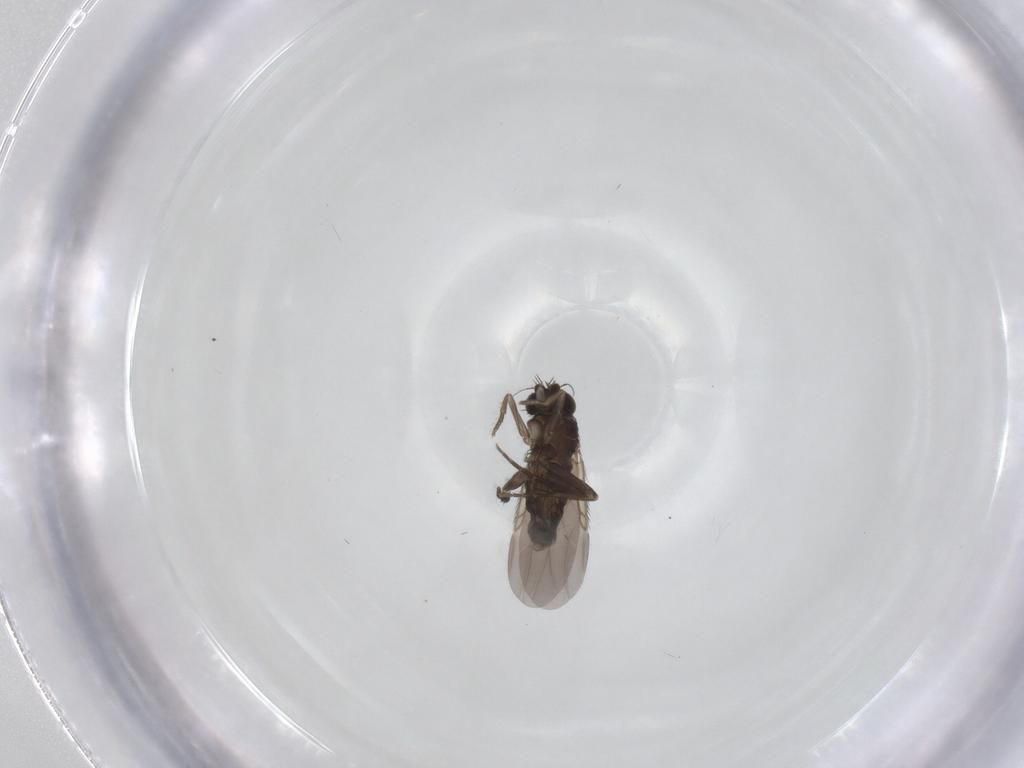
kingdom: Animalia
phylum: Arthropoda
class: Insecta
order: Diptera
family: Phoridae
